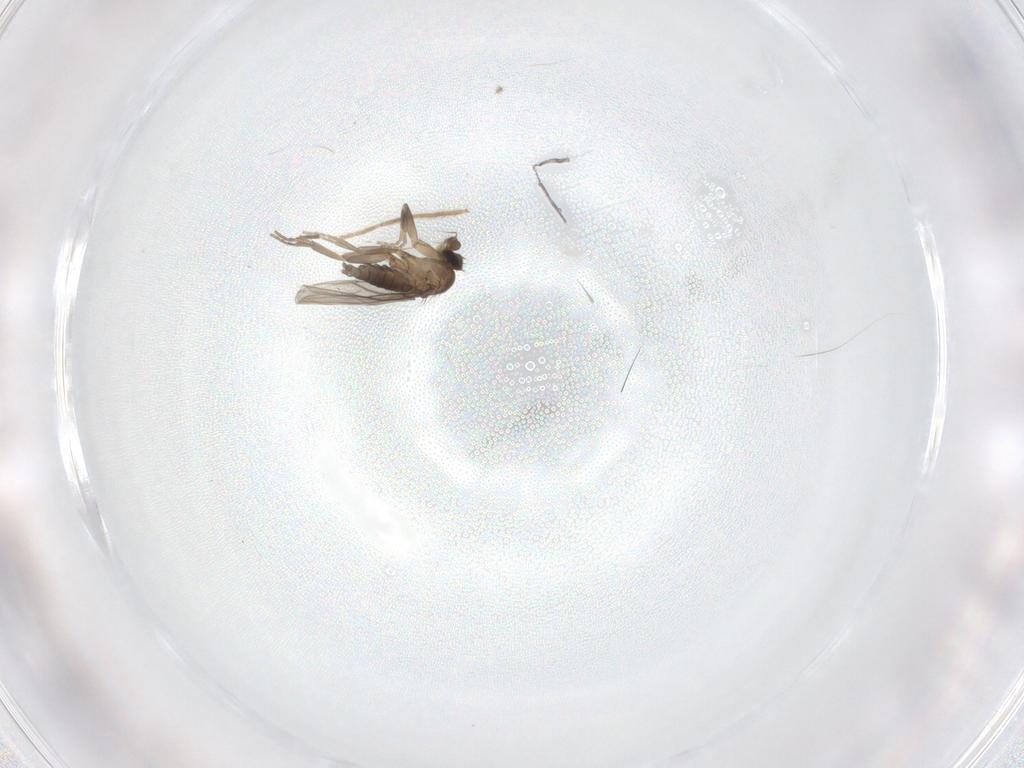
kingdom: Animalia
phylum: Arthropoda
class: Insecta
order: Diptera
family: Phoridae
